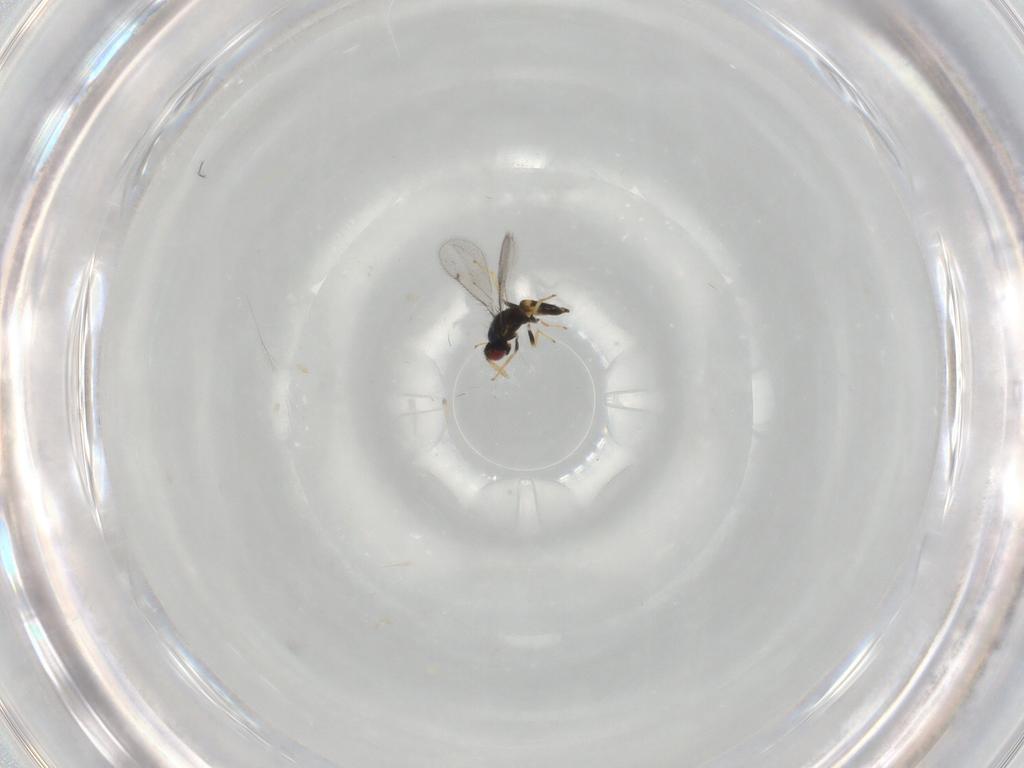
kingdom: Animalia
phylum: Arthropoda
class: Insecta
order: Hymenoptera
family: Eulophidae
